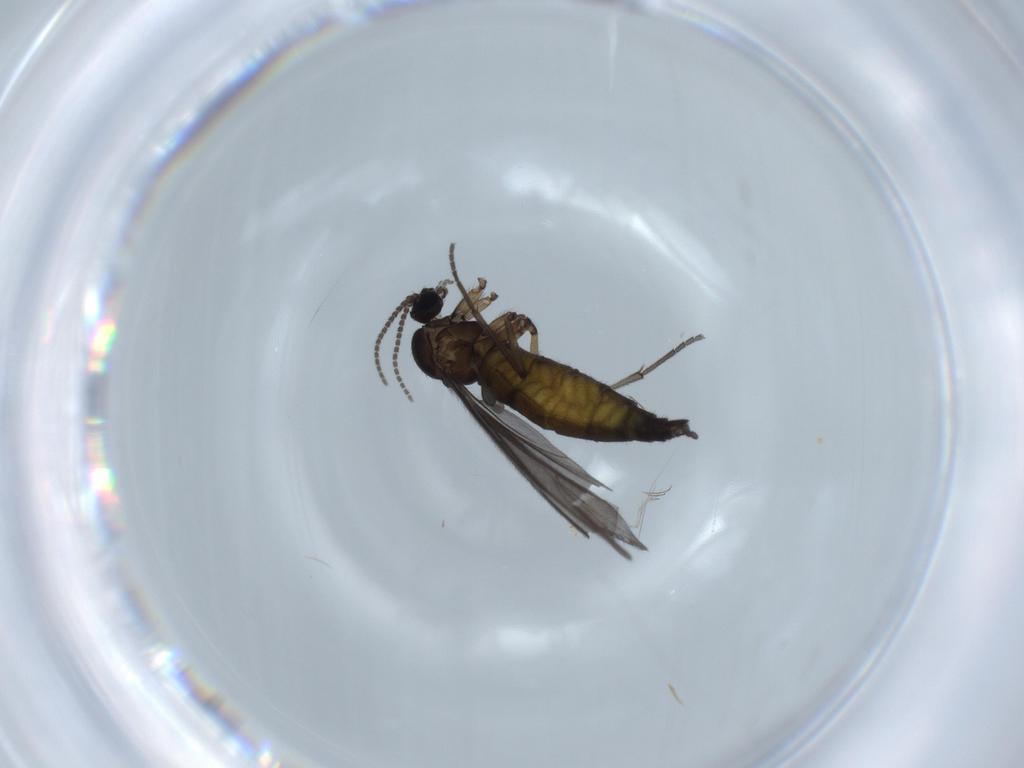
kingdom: Animalia
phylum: Arthropoda
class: Insecta
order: Diptera
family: Sciaridae
